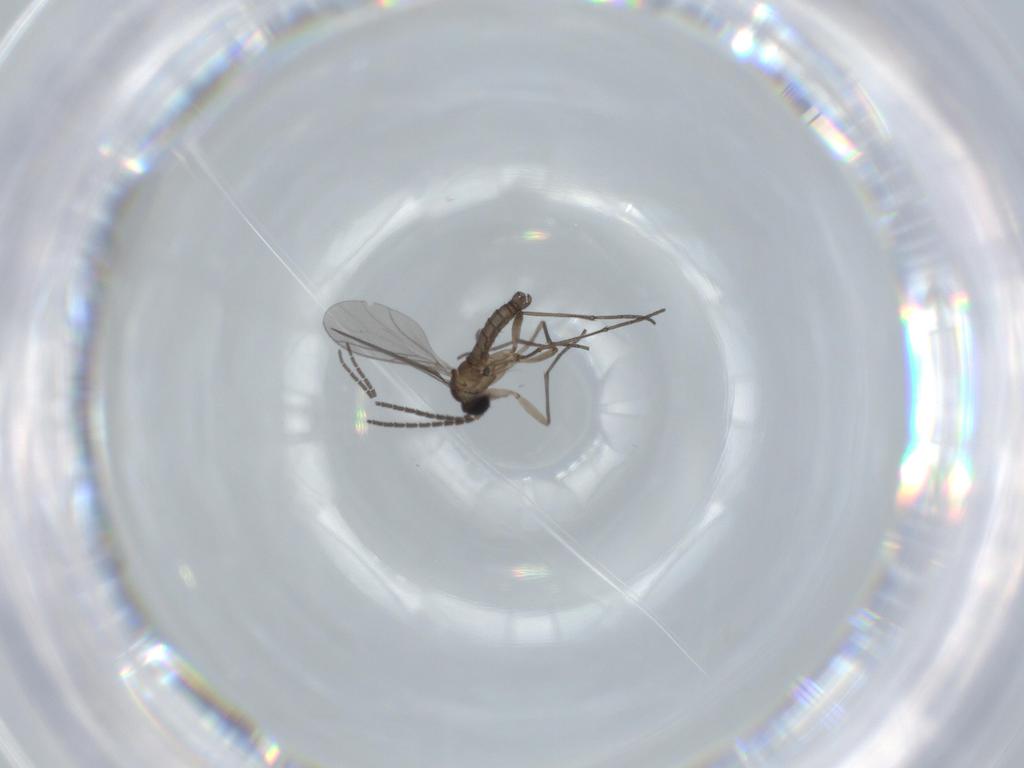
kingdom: Animalia
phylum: Arthropoda
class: Insecta
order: Diptera
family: Sciaridae
